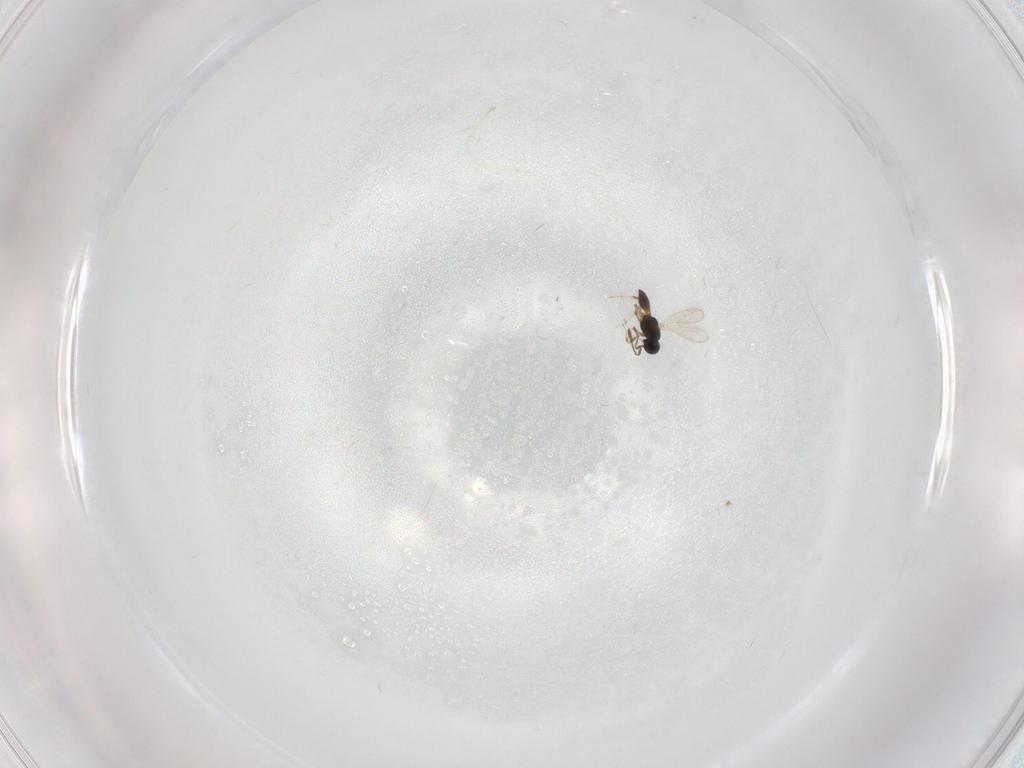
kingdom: Animalia
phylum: Arthropoda
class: Insecta
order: Hymenoptera
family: Scelionidae
